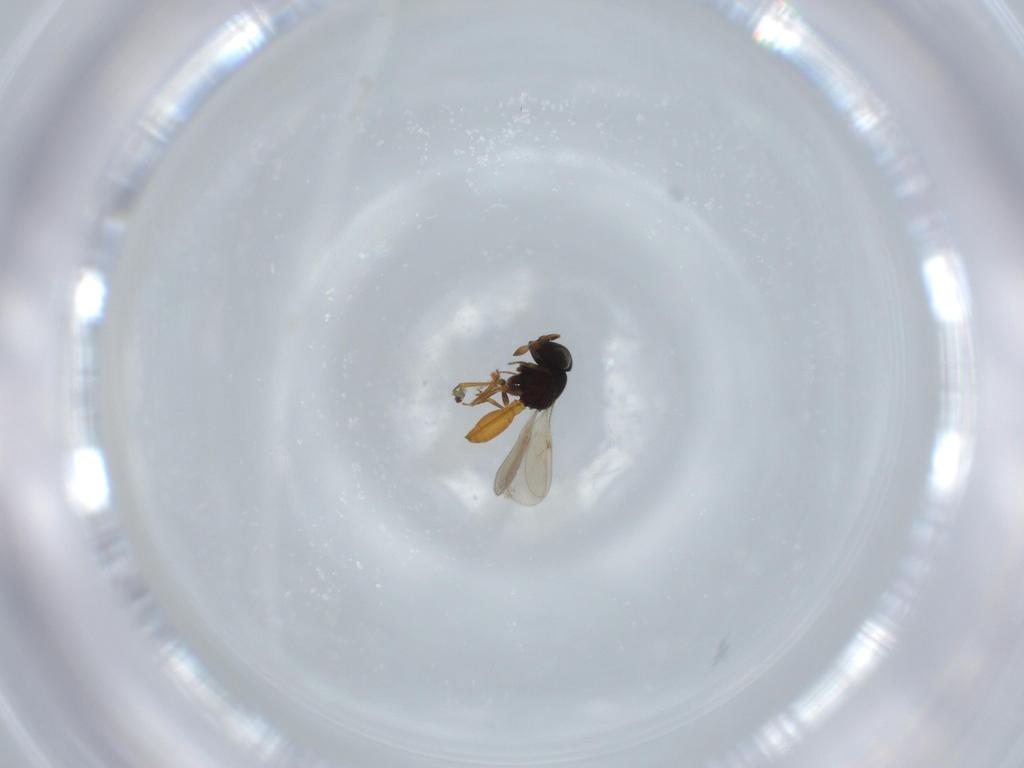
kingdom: Animalia
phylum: Arthropoda
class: Insecta
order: Hymenoptera
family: Scelionidae
